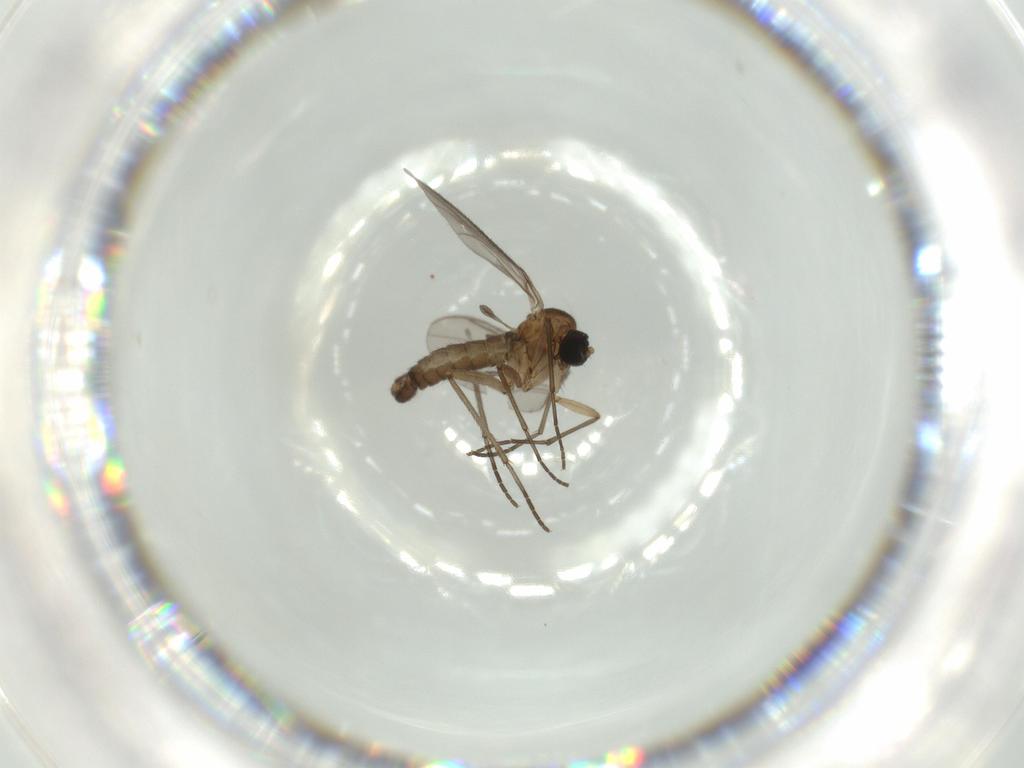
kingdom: Animalia
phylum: Arthropoda
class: Insecta
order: Diptera
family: Sciaridae
